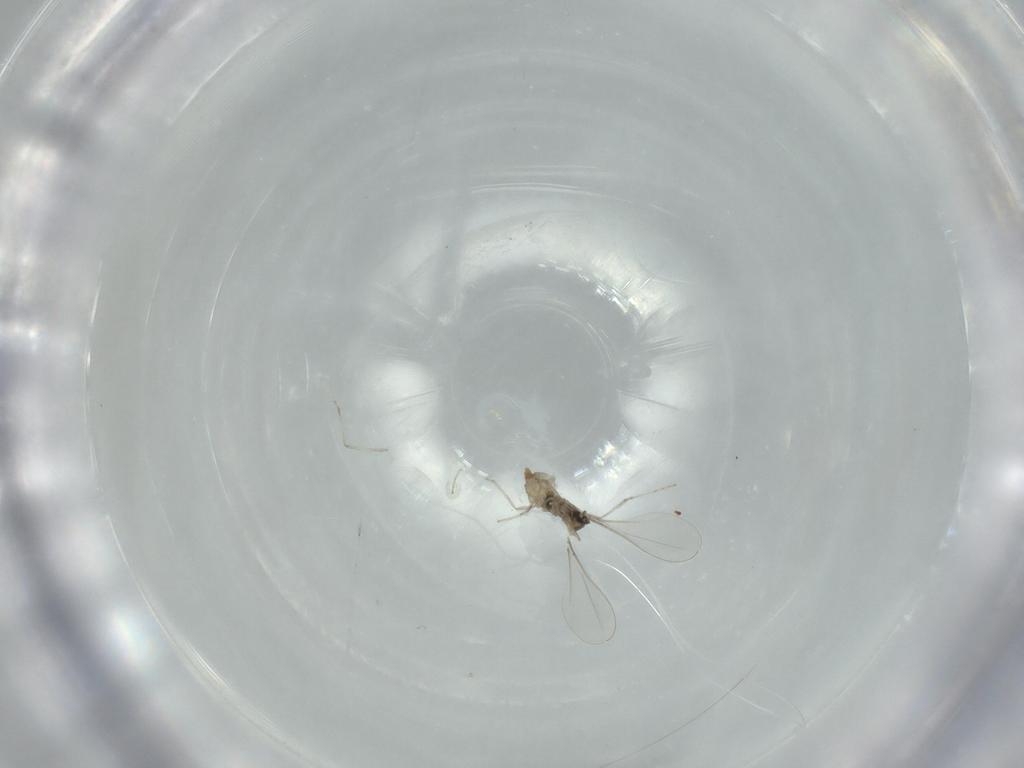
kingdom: Animalia
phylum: Arthropoda
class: Insecta
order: Diptera
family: Cecidomyiidae
